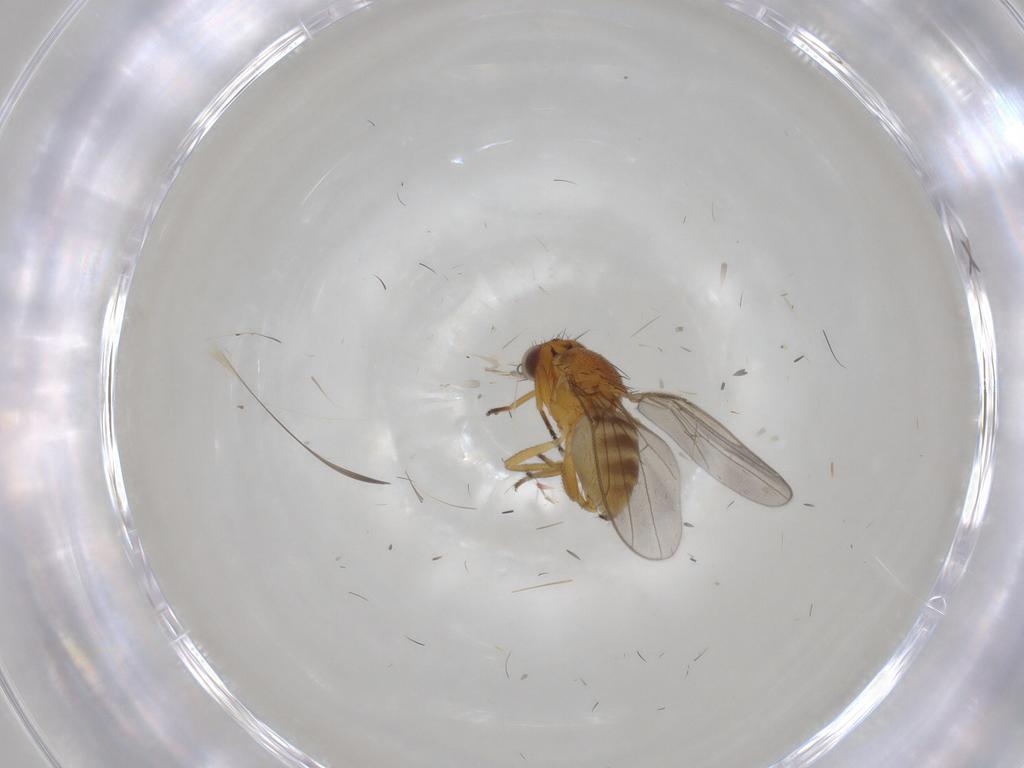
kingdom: Animalia
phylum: Arthropoda
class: Insecta
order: Diptera
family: Chloropidae
